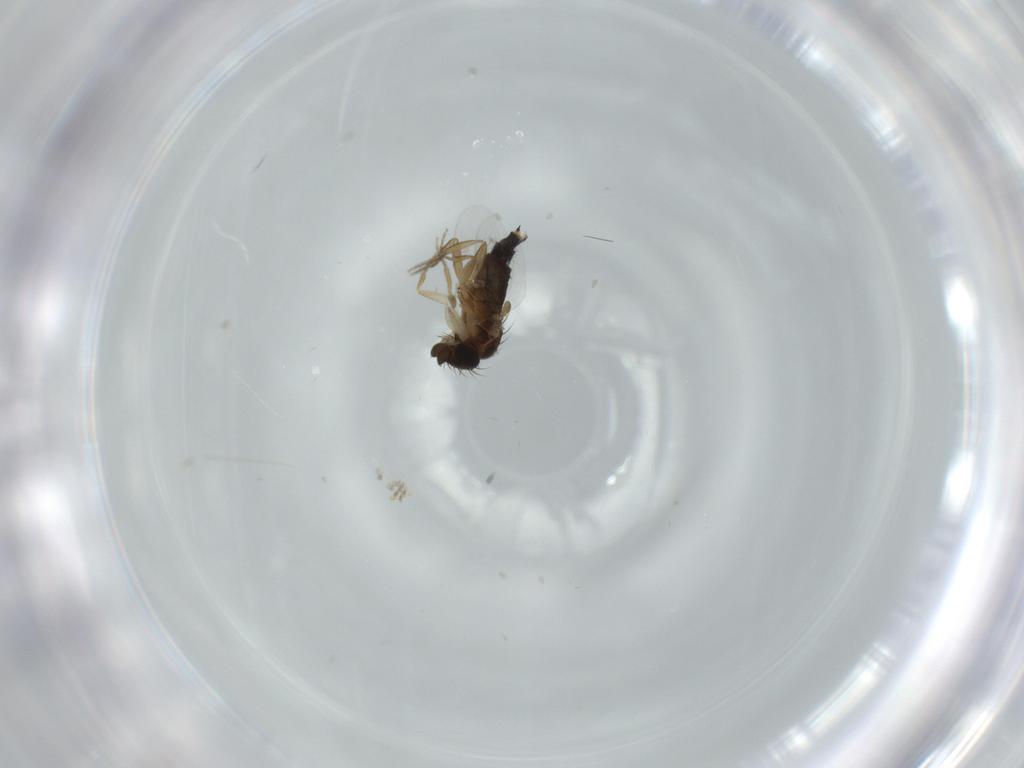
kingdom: Animalia
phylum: Arthropoda
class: Insecta
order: Diptera
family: Phoridae
